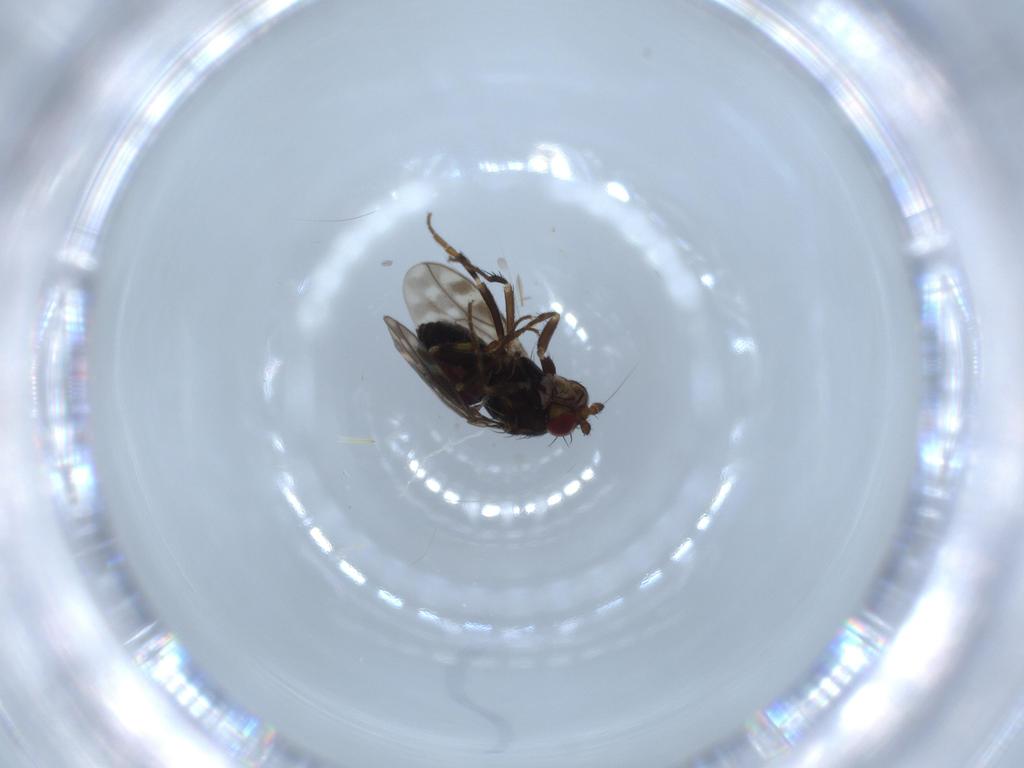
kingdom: Animalia
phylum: Arthropoda
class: Insecta
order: Diptera
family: Sphaeroceridae
